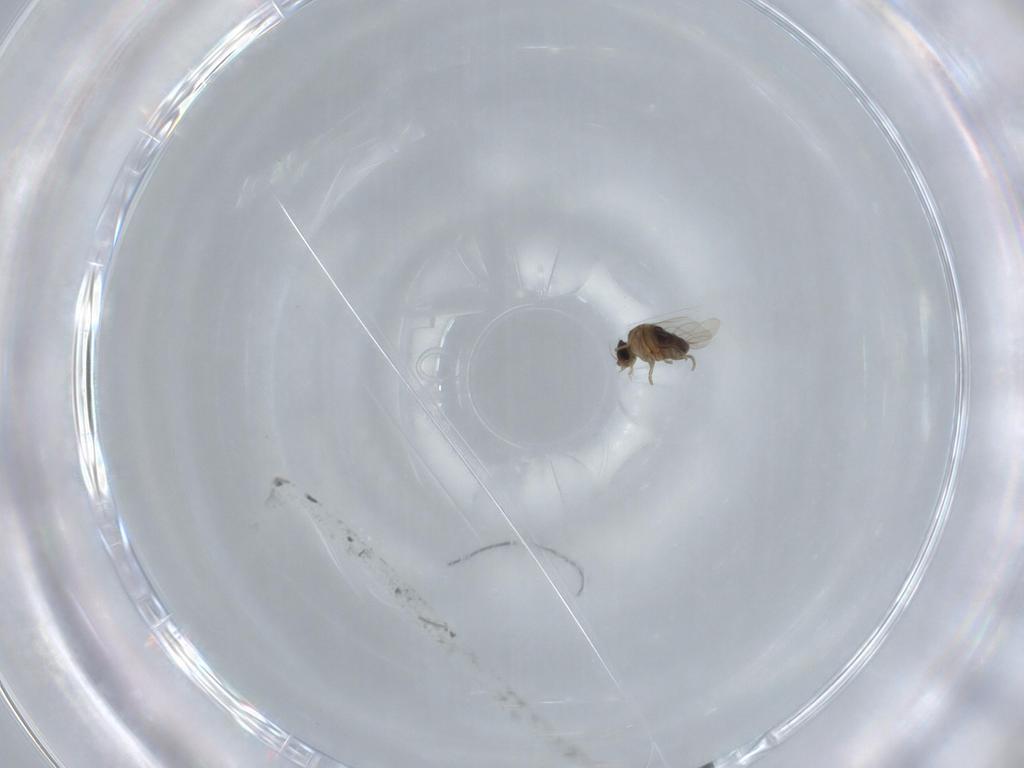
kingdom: Animalia
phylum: Arthropoda
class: Insecta
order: Diptera
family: Phoridae
